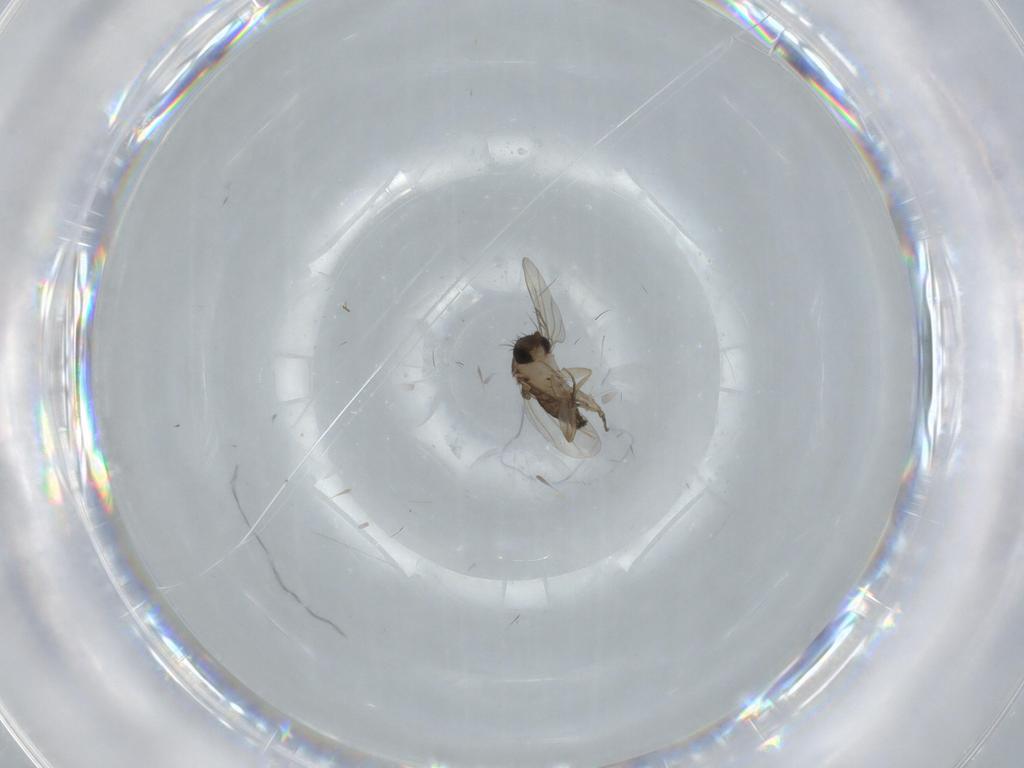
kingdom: Animalia
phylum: Arthropoda
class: Insecta
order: Diptera
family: Phoridae
